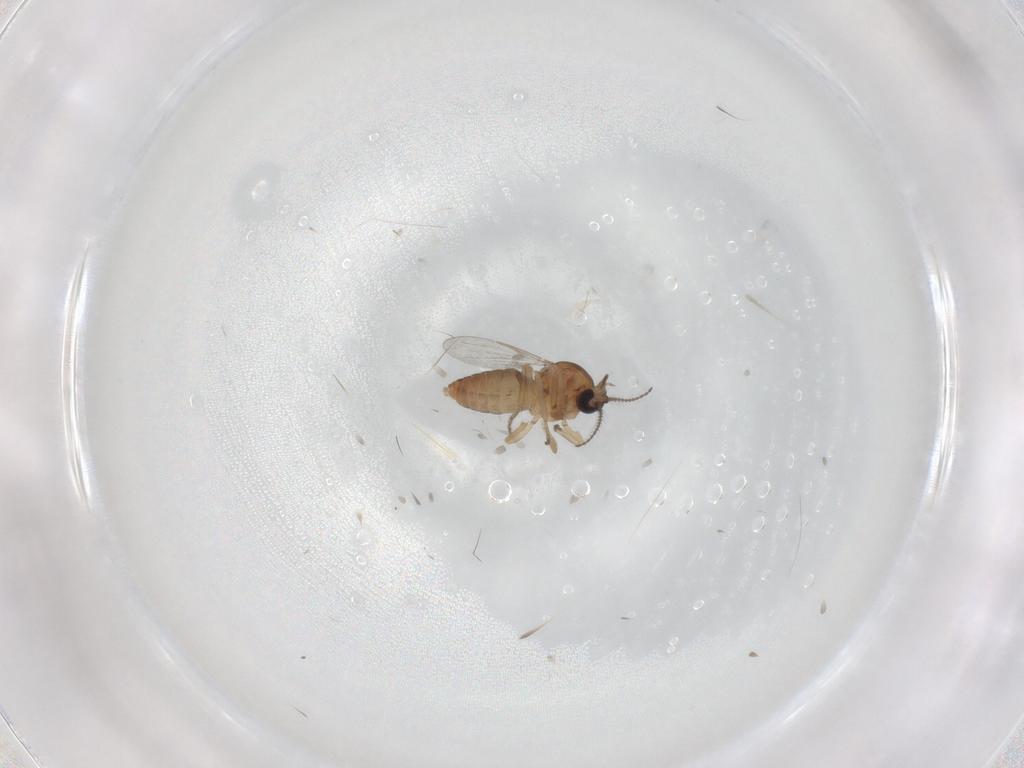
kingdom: Animalia
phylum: Arthropoda
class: Insecta
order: Diptera
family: Ceratopogonidae
